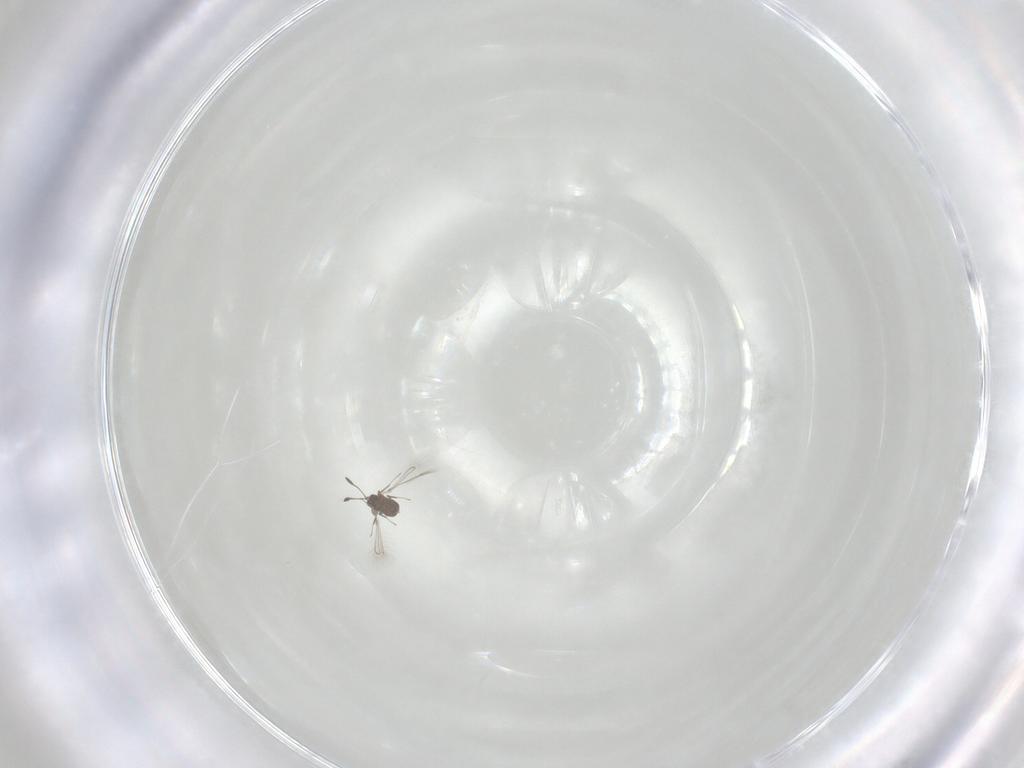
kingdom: Animalia
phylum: Arthropoda
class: Insecta
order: Hymenoptera
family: Mymaridae
